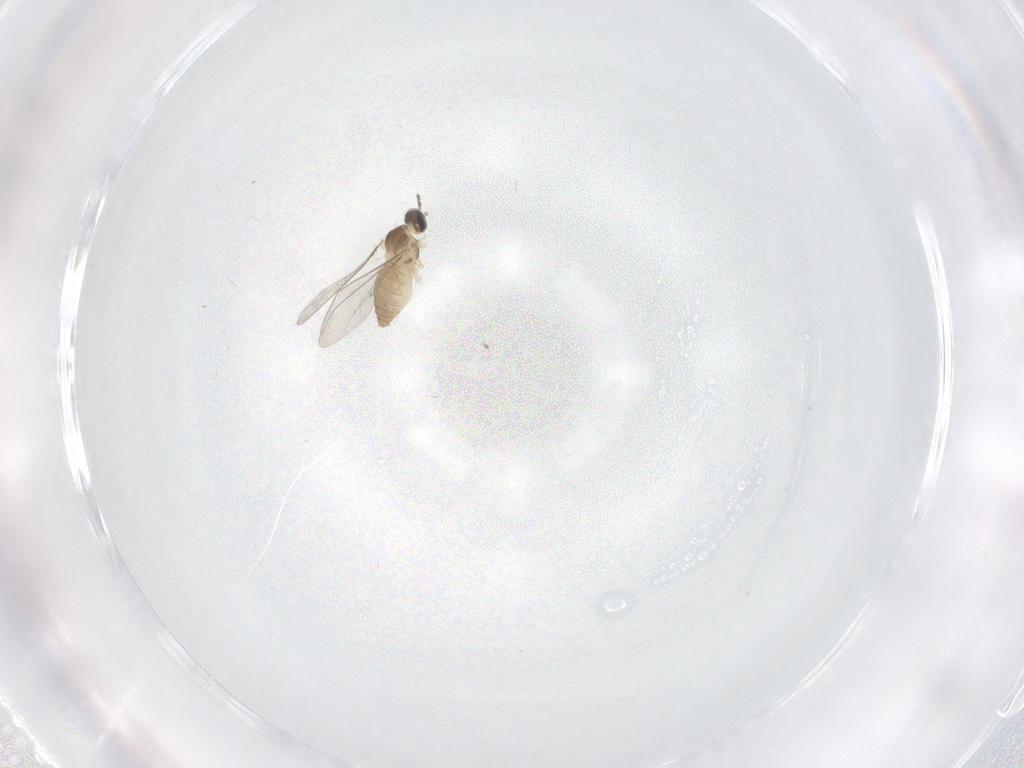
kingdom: Animalia
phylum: Arthropoda
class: Insecta
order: Diptera
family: Cecidomyiidae
